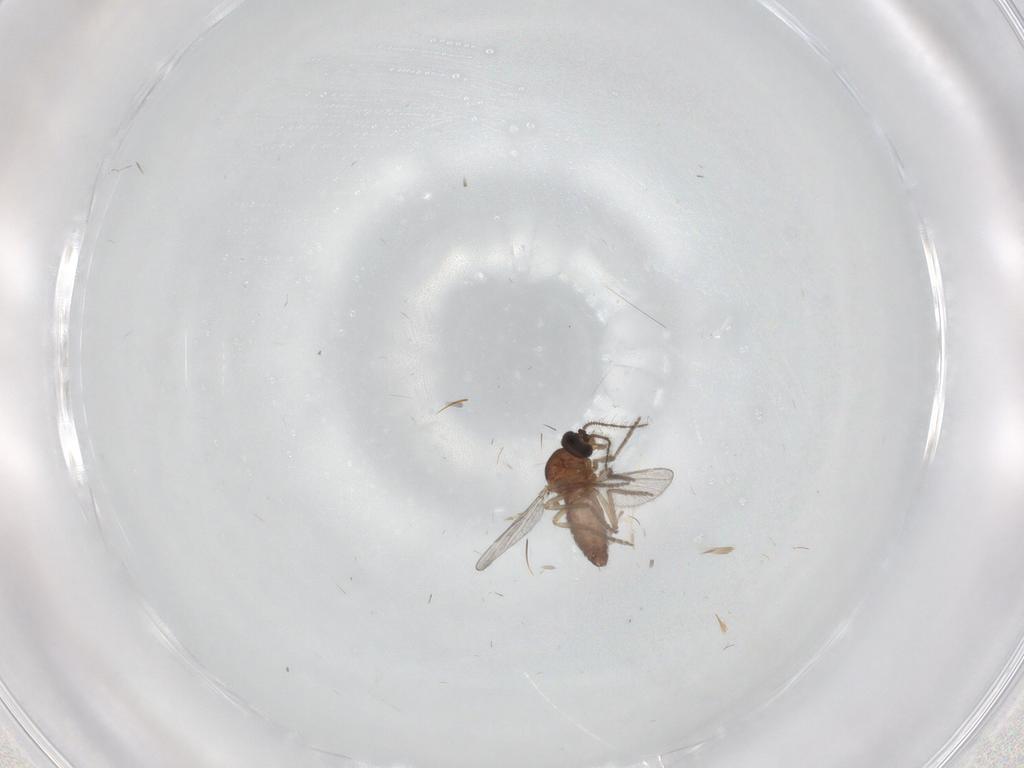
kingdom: Animalia
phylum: Arthropoda
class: Insecta
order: Diptera
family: Ceratopogonidae
